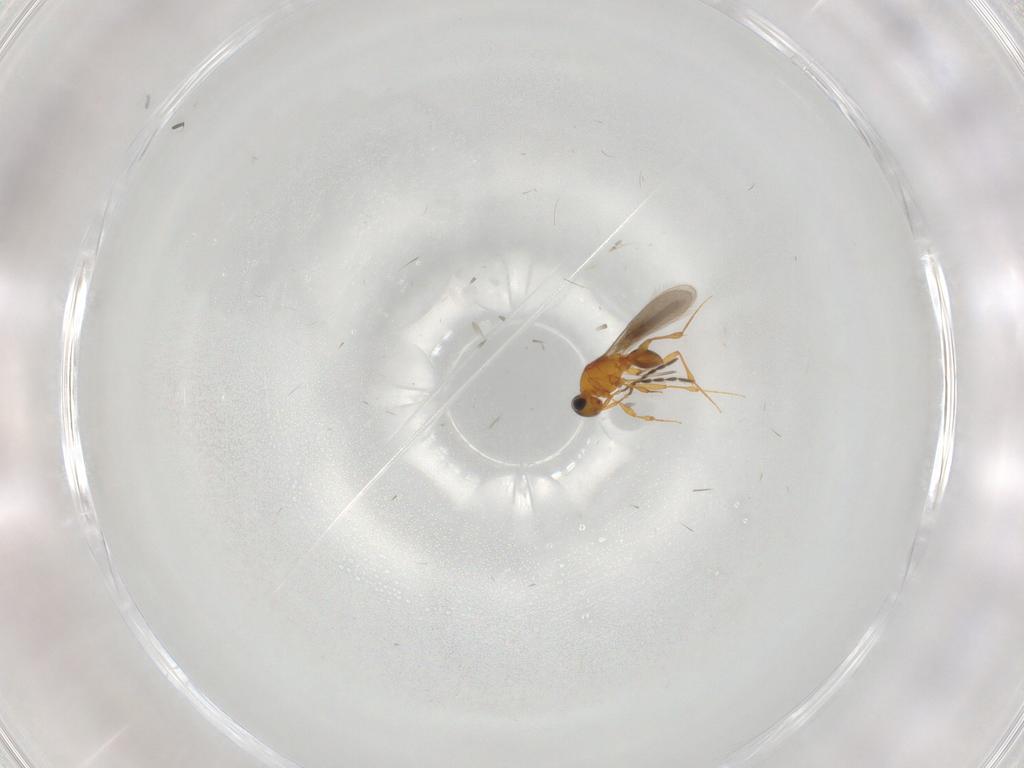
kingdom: Animalia
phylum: Arthropoda
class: Insecta
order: Hymenoptera
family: Platygastridae
